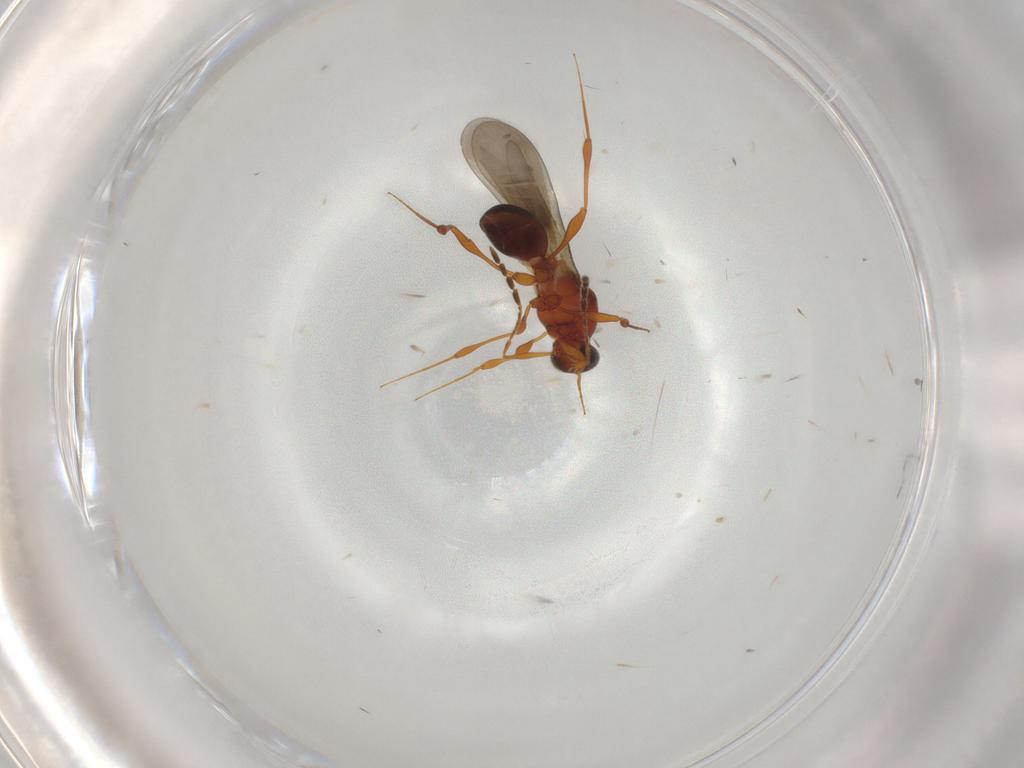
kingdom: Animalia
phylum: Arthropoda
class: Insecta
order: Hymenoptera
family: Platygastridae
